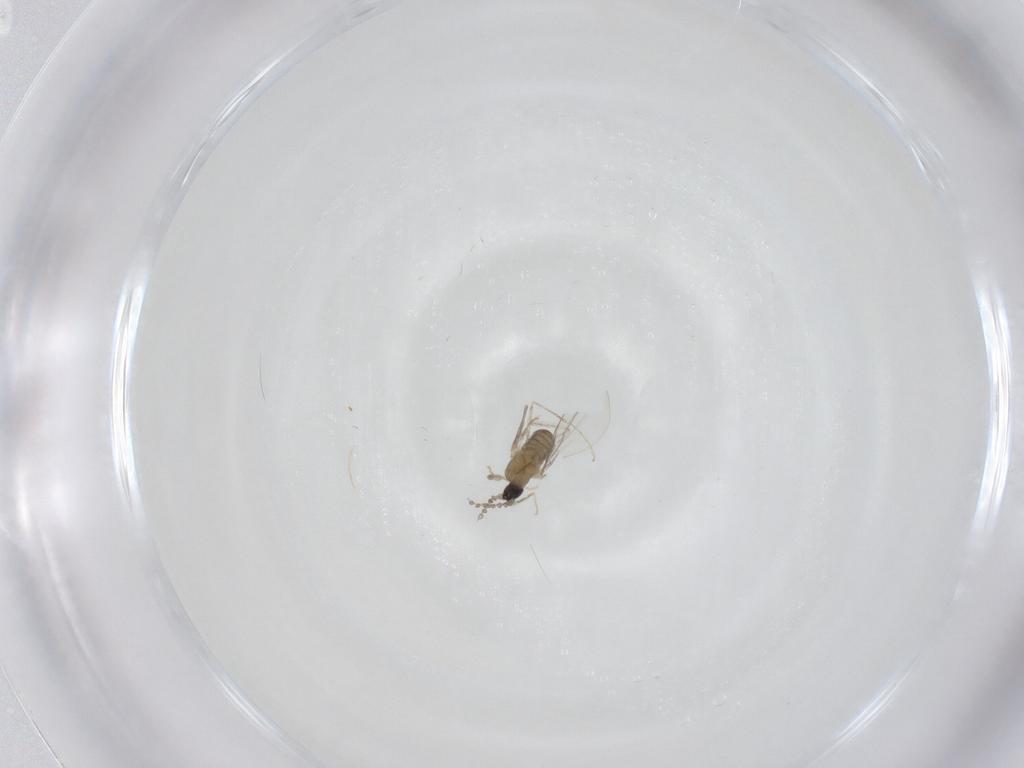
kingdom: Animalia
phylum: Arthropoda
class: Insecta
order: Diptera
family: Cecidomyiidae
